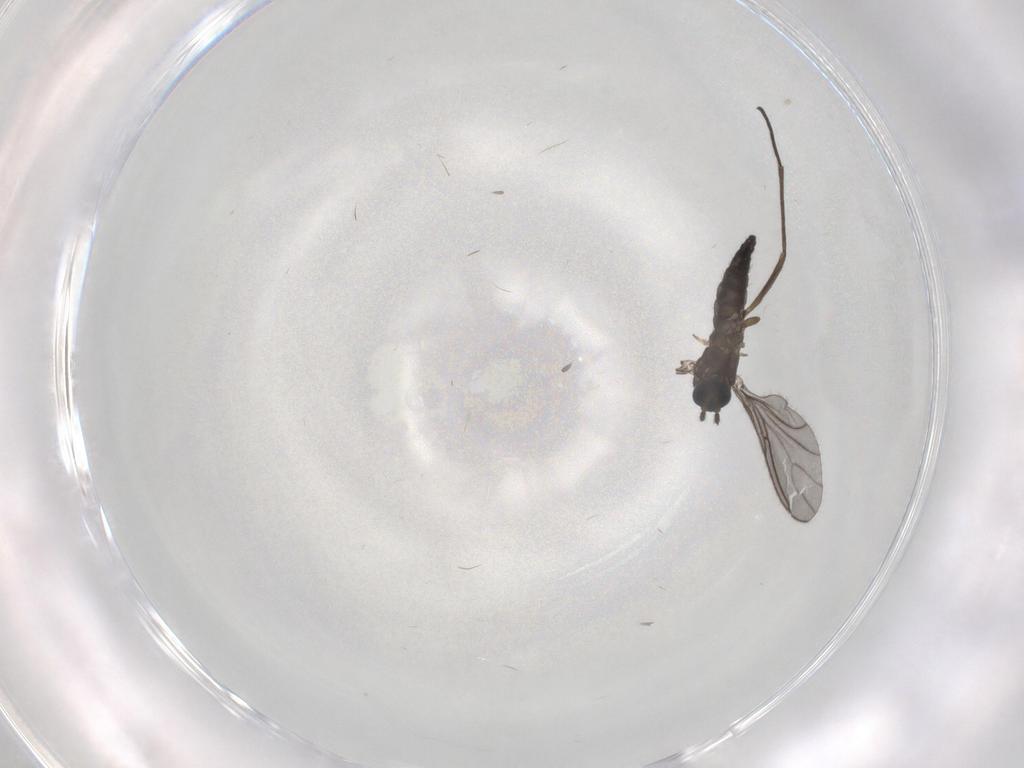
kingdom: Animalia
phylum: Arthropoda
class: Insecta
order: Diptera
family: Sciaridae
